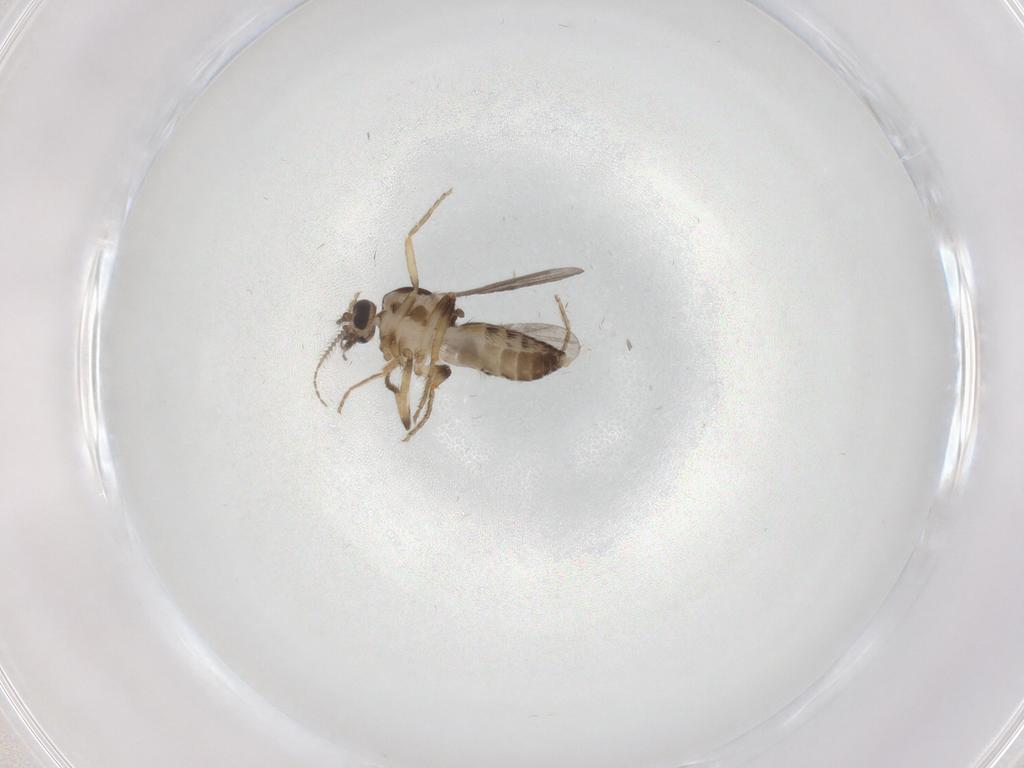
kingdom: Animalia
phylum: Arthropoda
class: Insecta
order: Diptera
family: Ceratopogonidae
